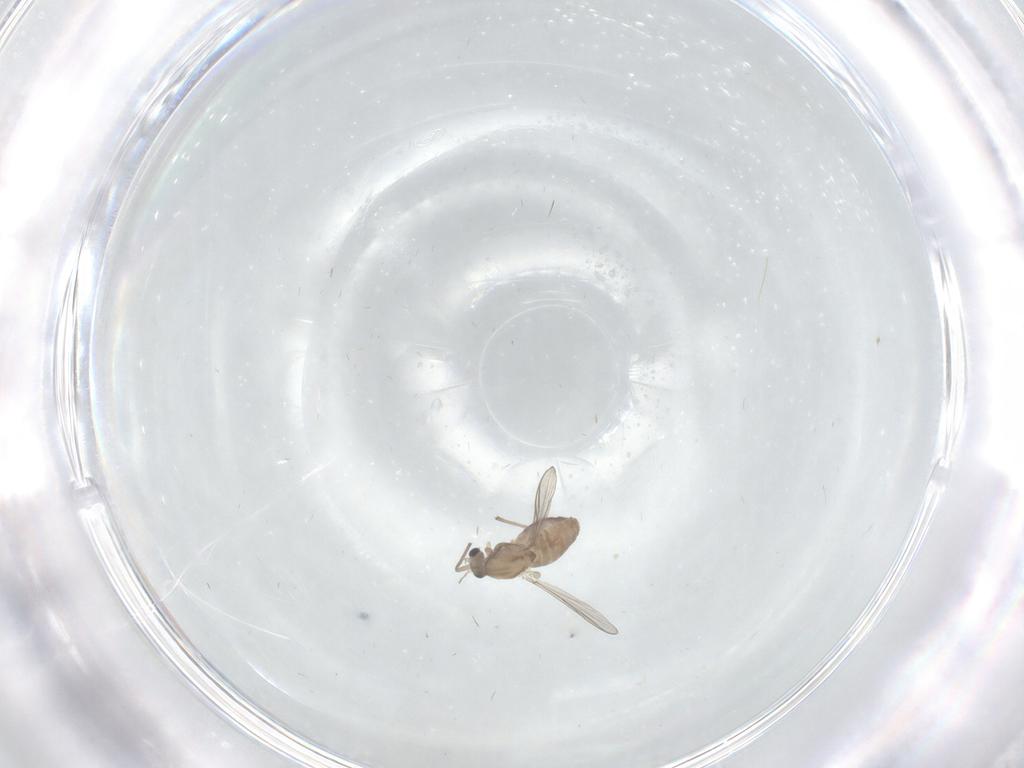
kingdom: Animalia
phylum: Arthropoda
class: Insecta
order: Diptera
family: Chironomidae
